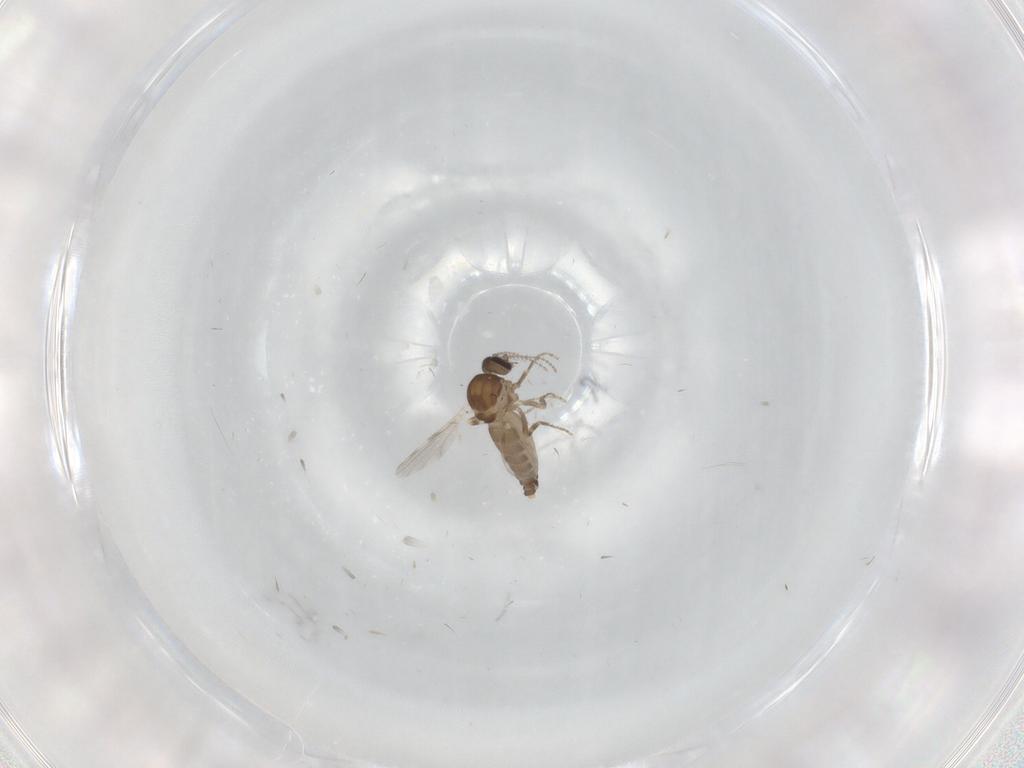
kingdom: Animalia
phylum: Arthropoda
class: Insecta
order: Diptera
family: Ceratopogonidae
